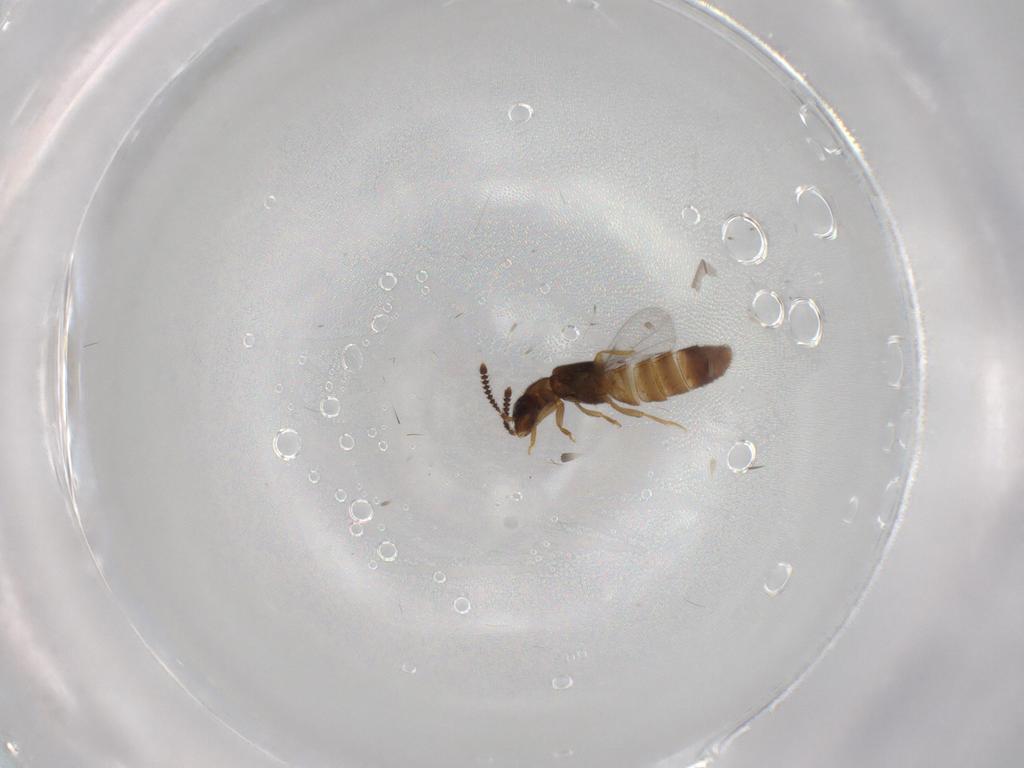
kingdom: Animalia
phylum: Arthropoda
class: Insecta
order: Coleoptera
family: Staphylinidae
